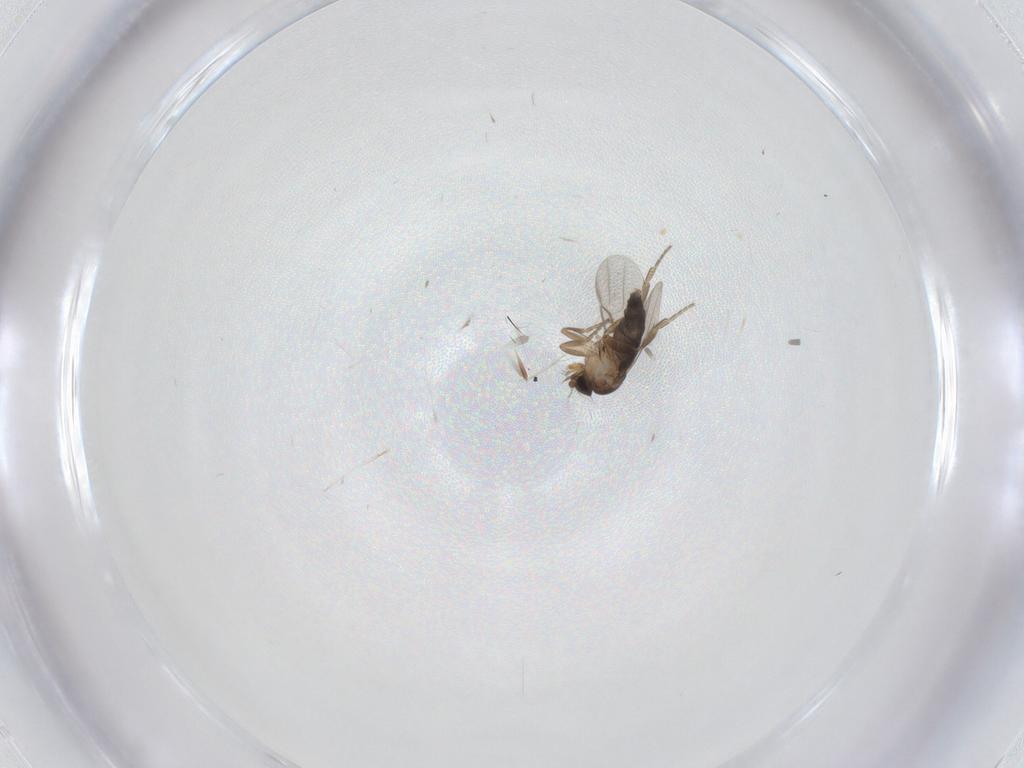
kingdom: Animalia
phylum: Arthropoda
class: Insecta
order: Diptera
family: Chironomidae
